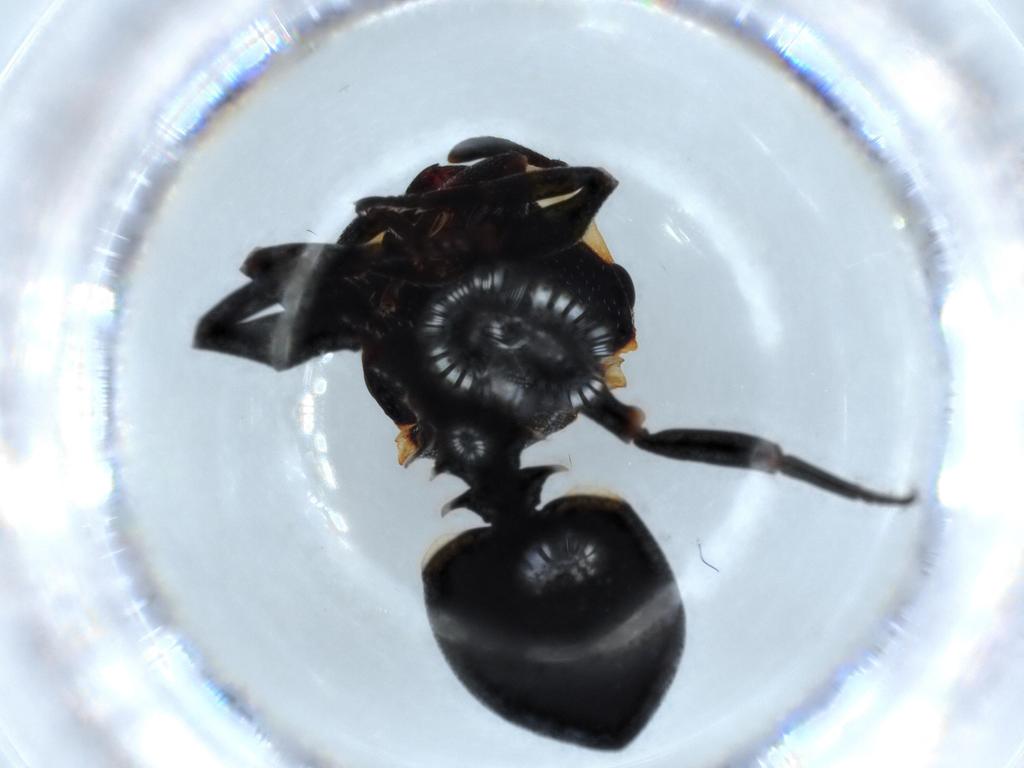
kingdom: Animalia
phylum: Arthropoda
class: Insecta
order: Hymenoptera
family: Formicidae
